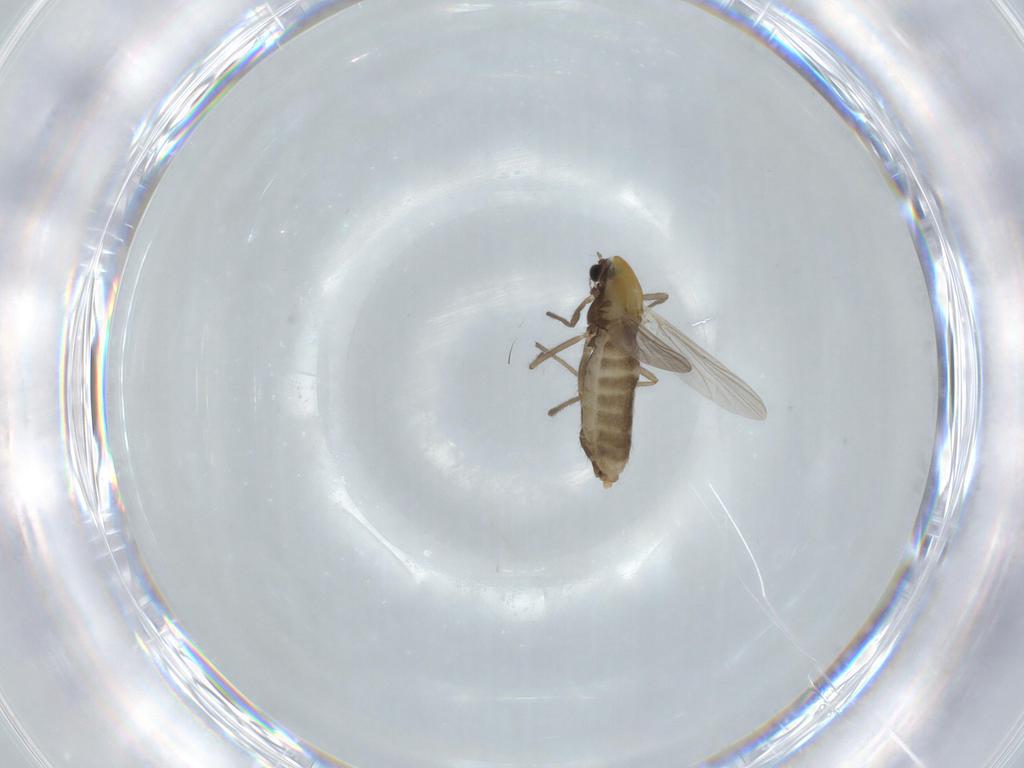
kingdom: Animalia
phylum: Arthropoda
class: Insecta
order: Diptera
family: Chironomidae
